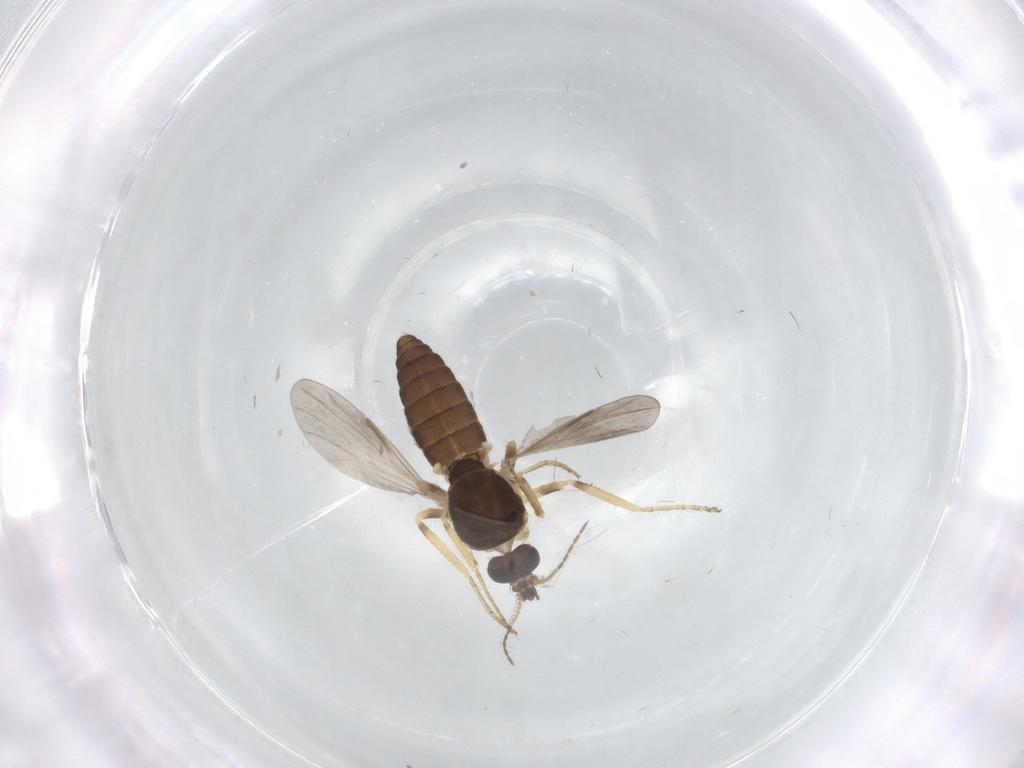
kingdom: Animalia
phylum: Arthropoda
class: Insecta
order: Diptera
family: Ceratopogonidae
